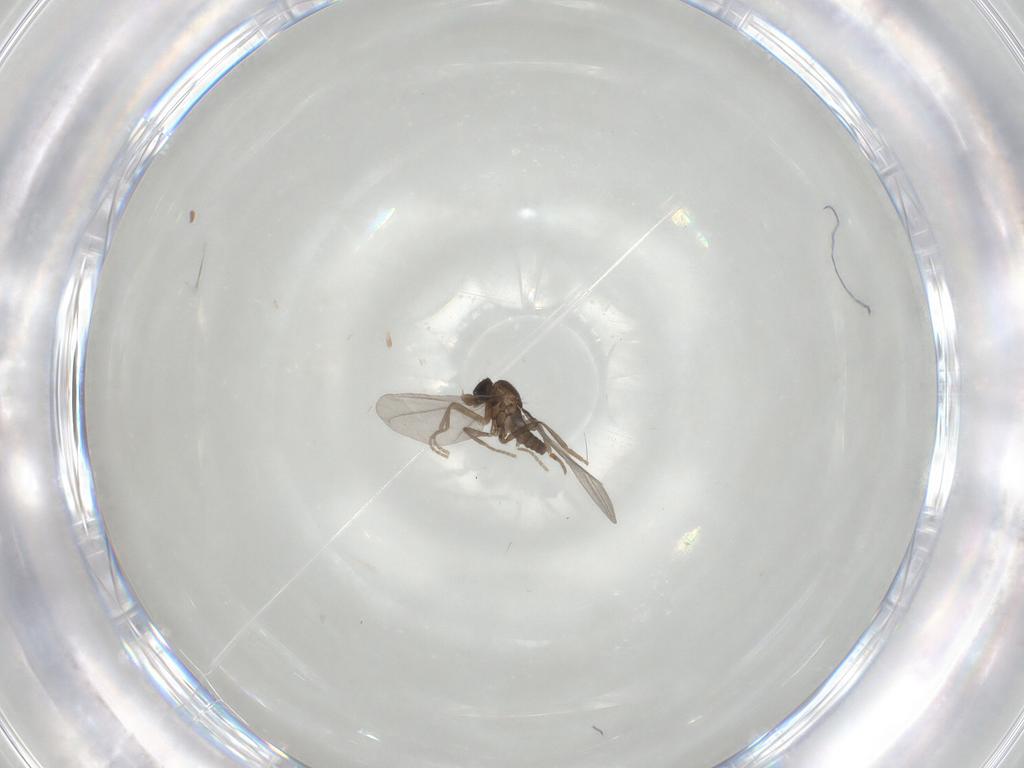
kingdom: Animalia
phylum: Arthropoda
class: Insecta
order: Diptera
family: Phoridae
